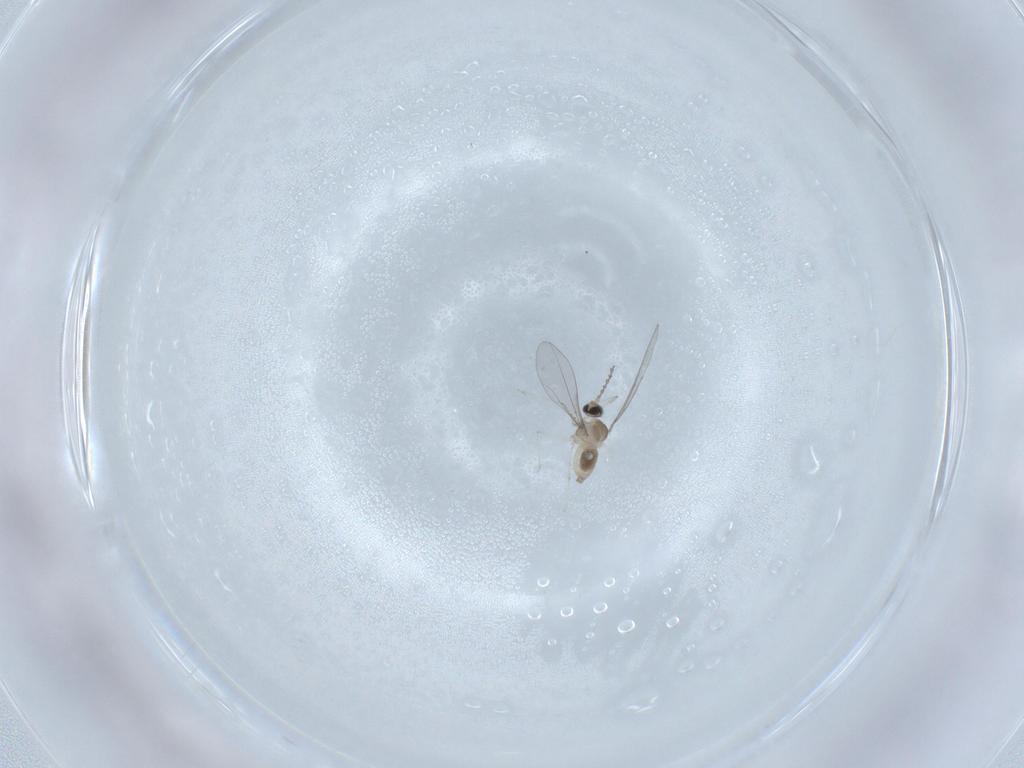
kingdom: Animalia
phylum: Arthropoda
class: Insecta
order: Diptera
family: Cecidomyiidae
